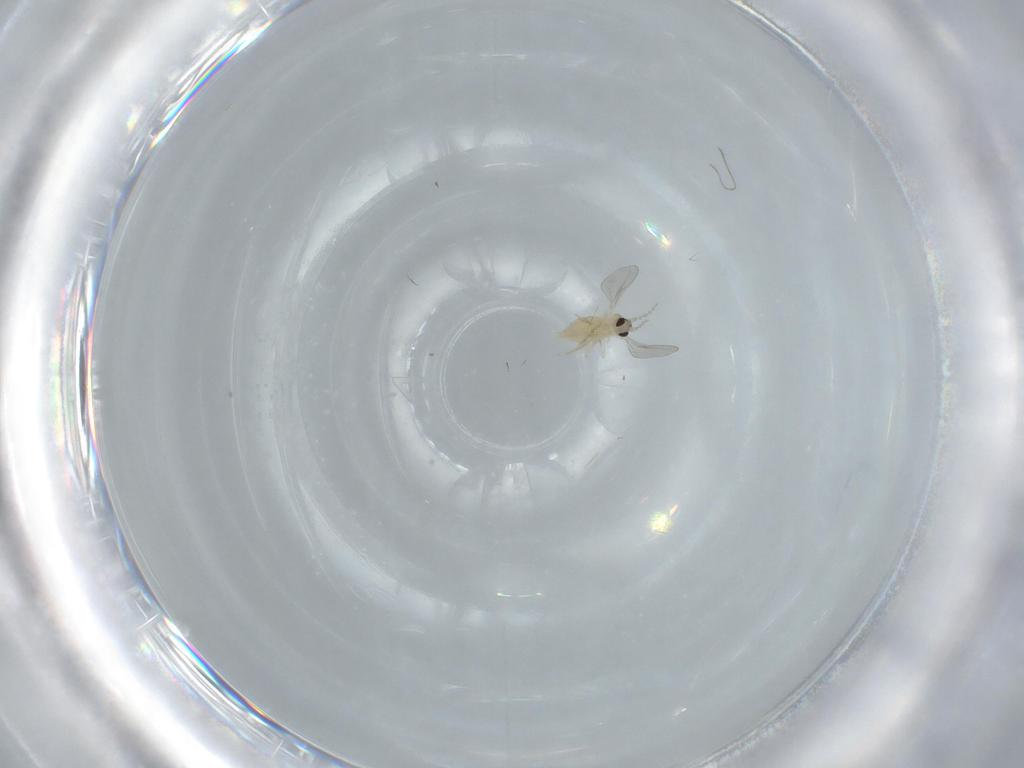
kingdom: Animalia
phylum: Arthropoda
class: Insecta
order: Diptera
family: Cecidomyiidae
